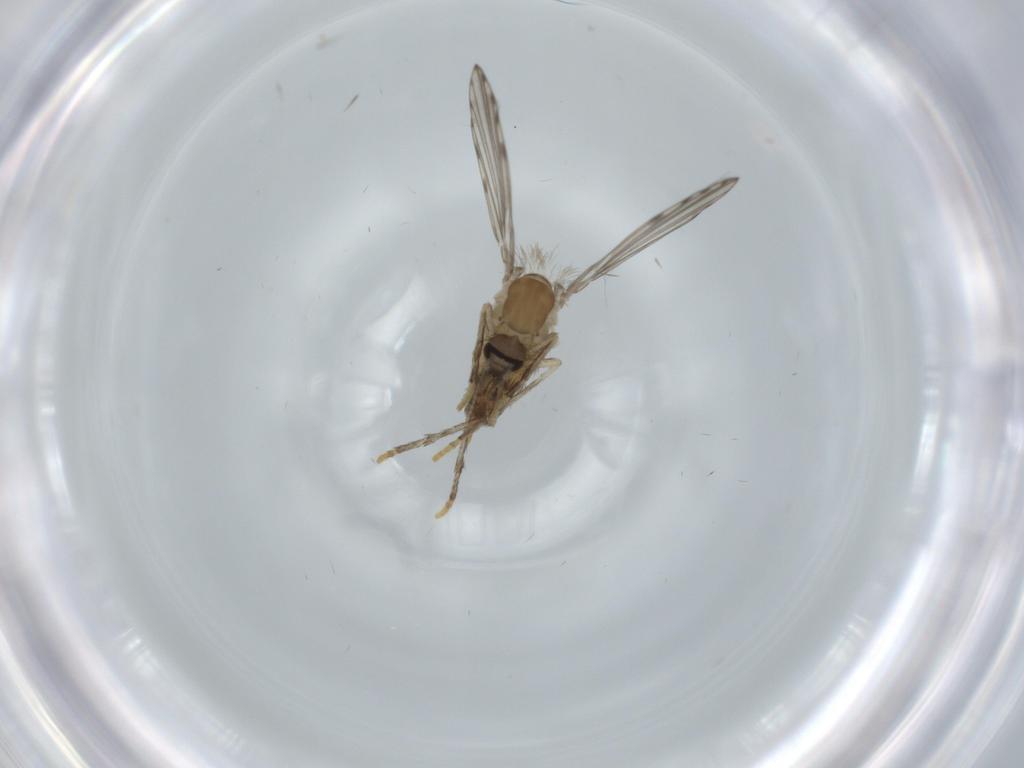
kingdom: Animalia
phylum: Arthropoda
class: Insecta
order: Diptera
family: Psychodidae
